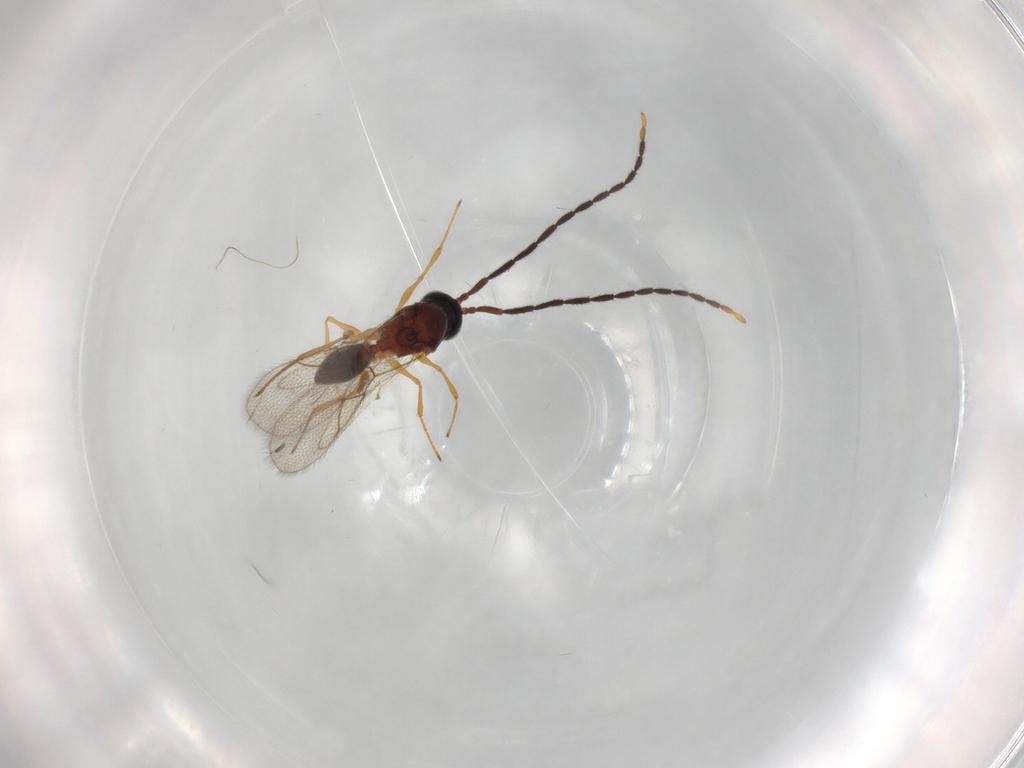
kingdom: Animalia
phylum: Arthropoda
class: Insecta
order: Hymenoptera
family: Figitidae
